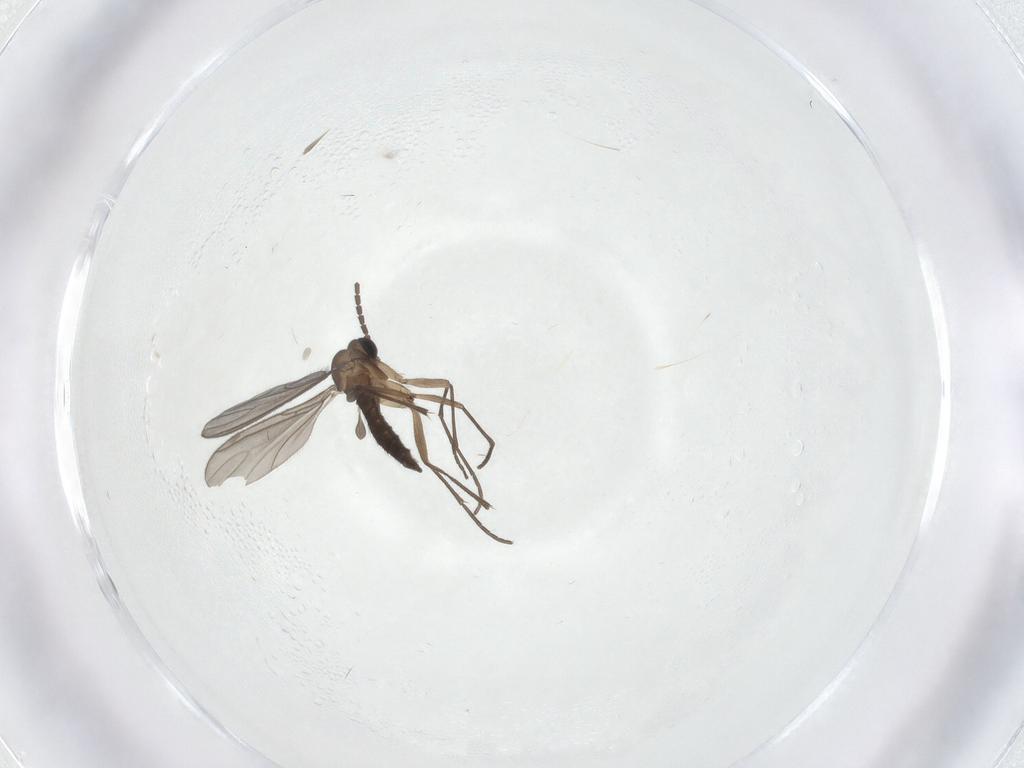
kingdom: Animalia
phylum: Arthropoda
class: Insecta
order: Diptera
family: Sciaridae
